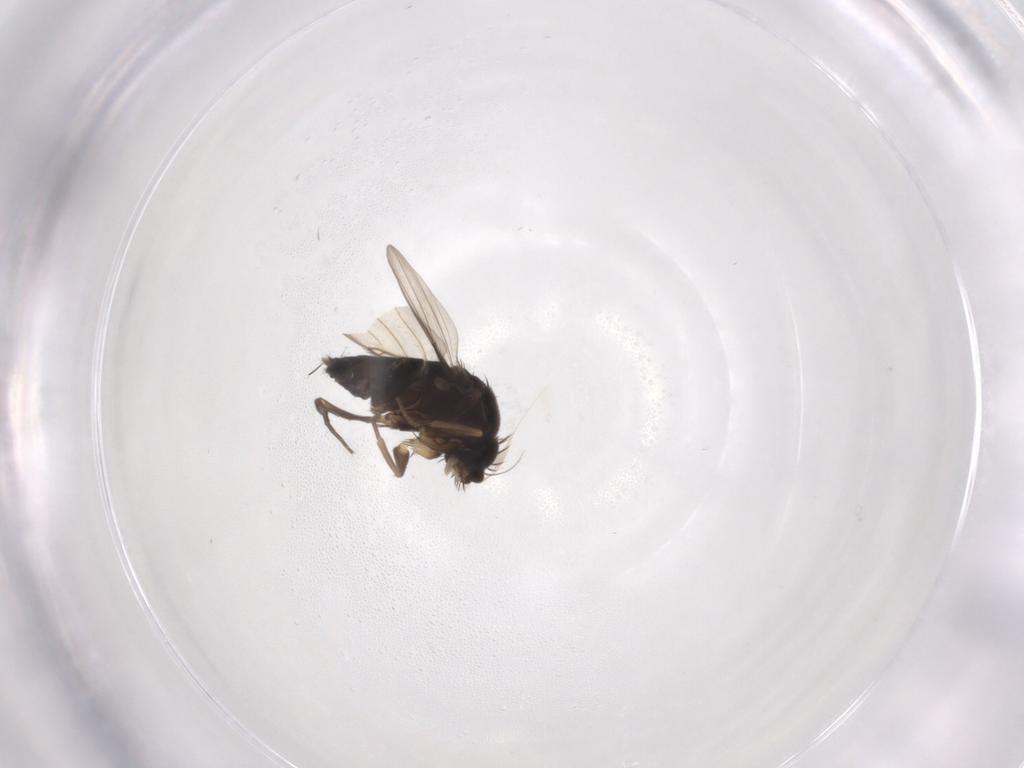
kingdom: Animalia
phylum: Arthropoda
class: Insecta
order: Diptera
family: Phoridae
